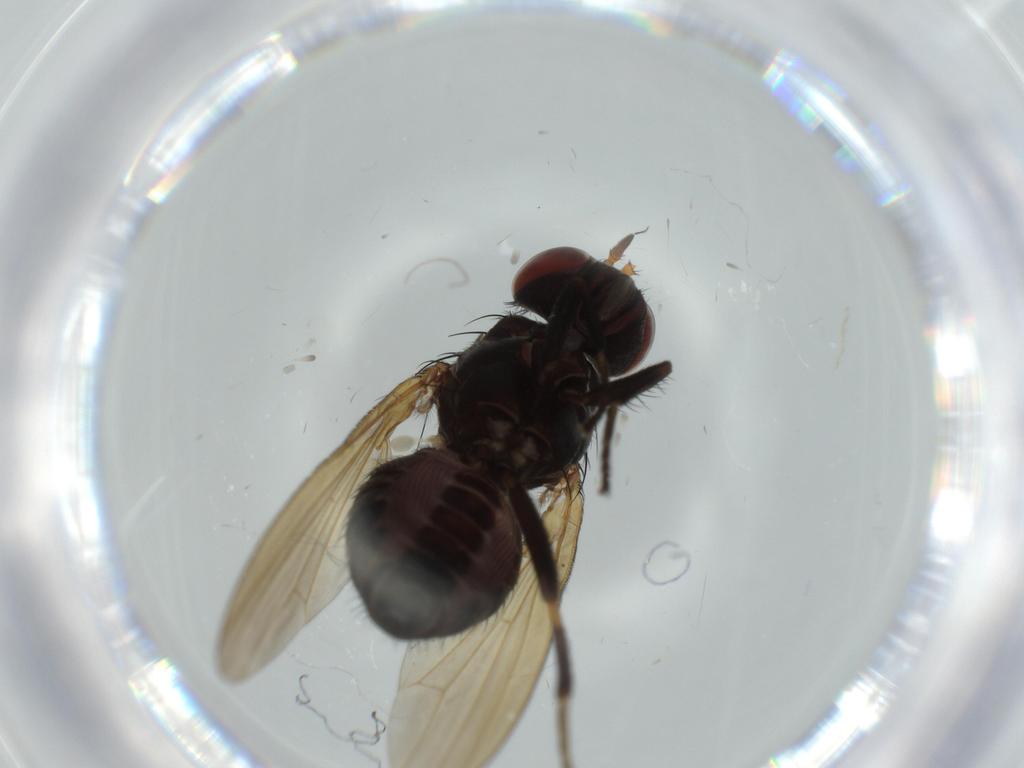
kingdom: Animalia
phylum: Arthropoda
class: Insecta
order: Diptera
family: Lauxaniidae
